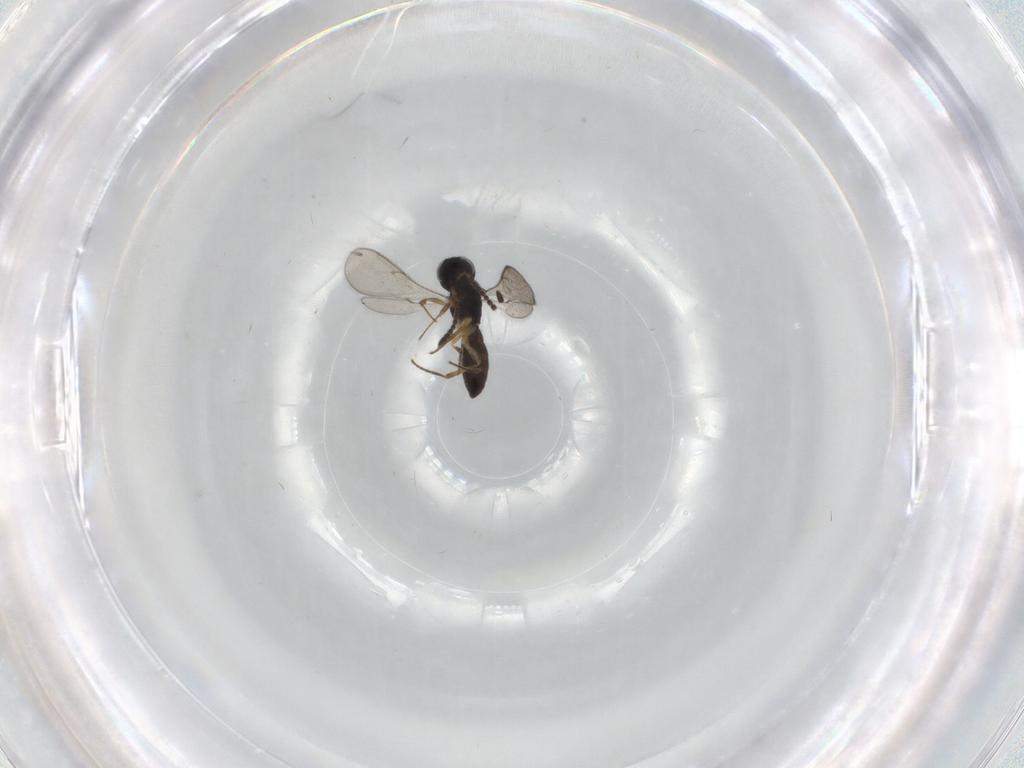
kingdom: Animalia
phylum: Arthropoda
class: Insecta
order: Hymenoptera
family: Scelionidae
